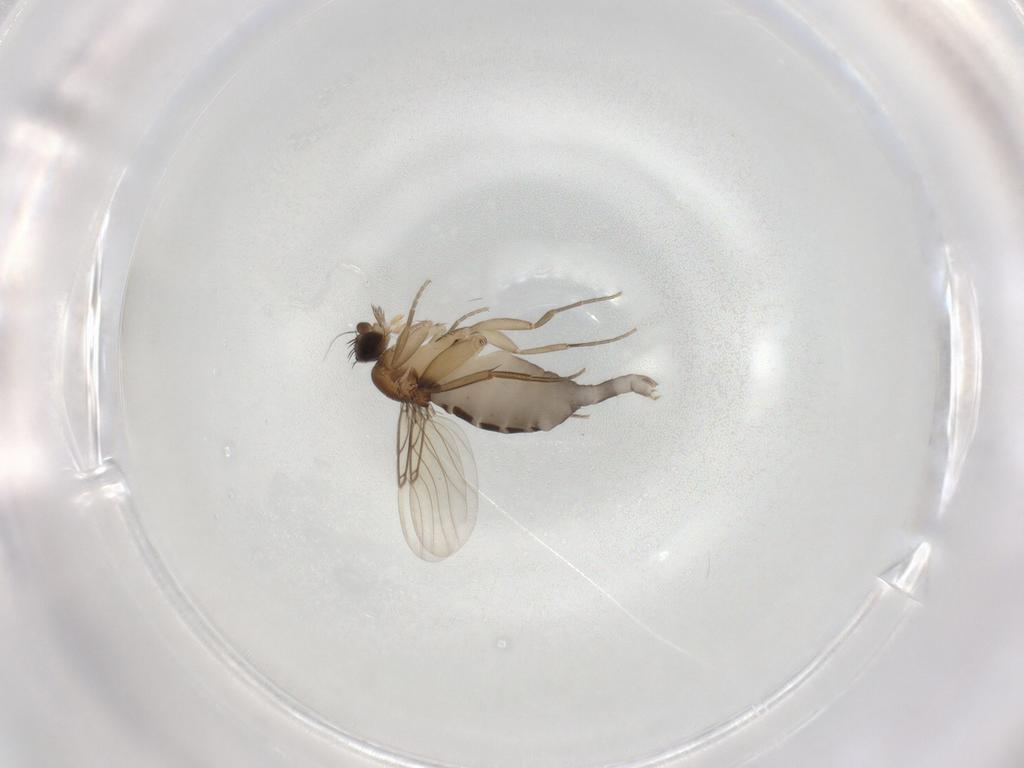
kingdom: Animalia
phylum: Arthropoda
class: Insecta
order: Diptera
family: Phoridae
